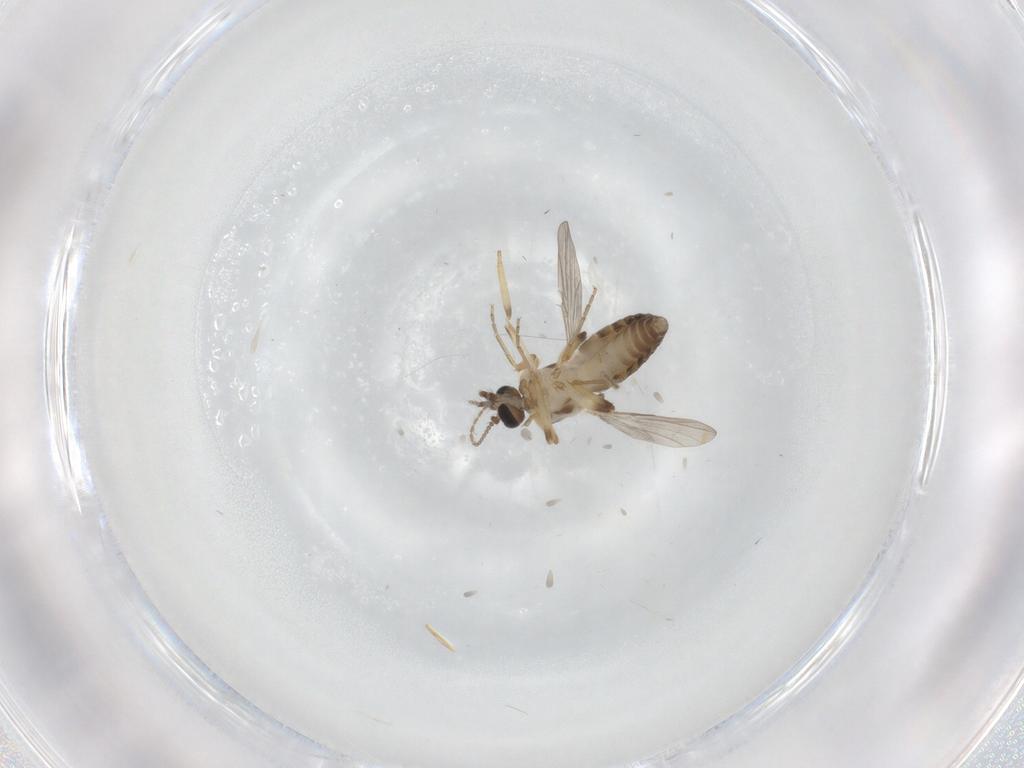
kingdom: Animalia
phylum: Arthropoda
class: Insecta
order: Diptera
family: Ceratopogonidae
